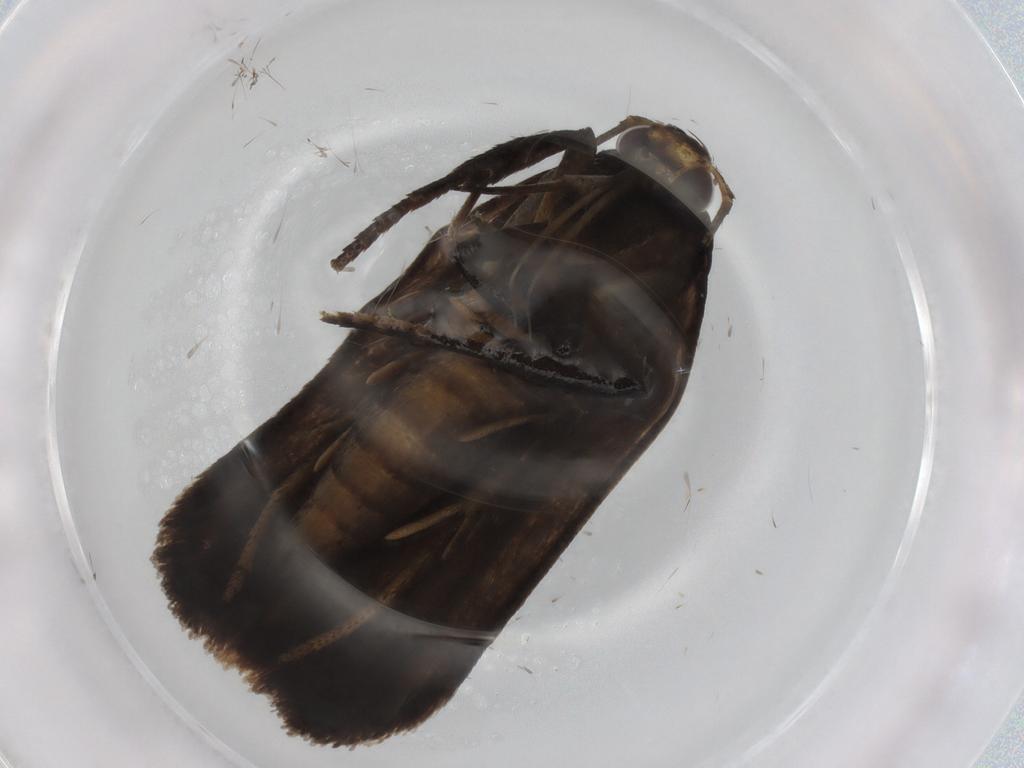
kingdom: Animalia
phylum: Arthropoda
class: Insecta
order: Lepidoptera
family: Gelechiidae
